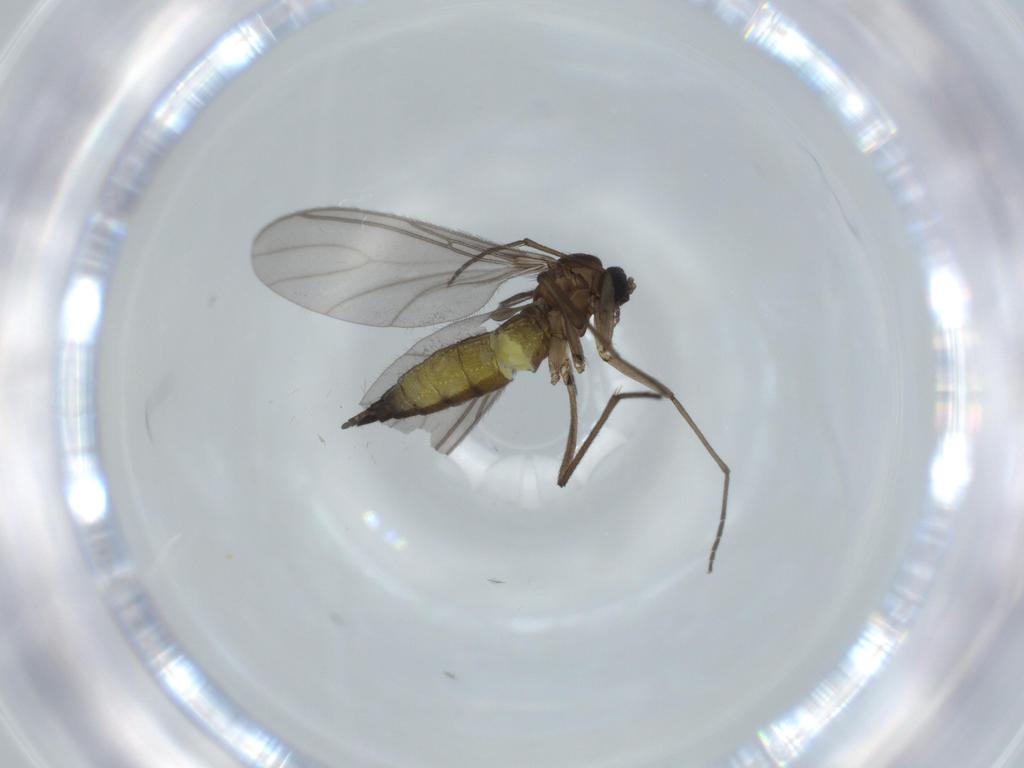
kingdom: Animalia
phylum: Arthropoda
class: Insecta
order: Diptera
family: Sciaridae
